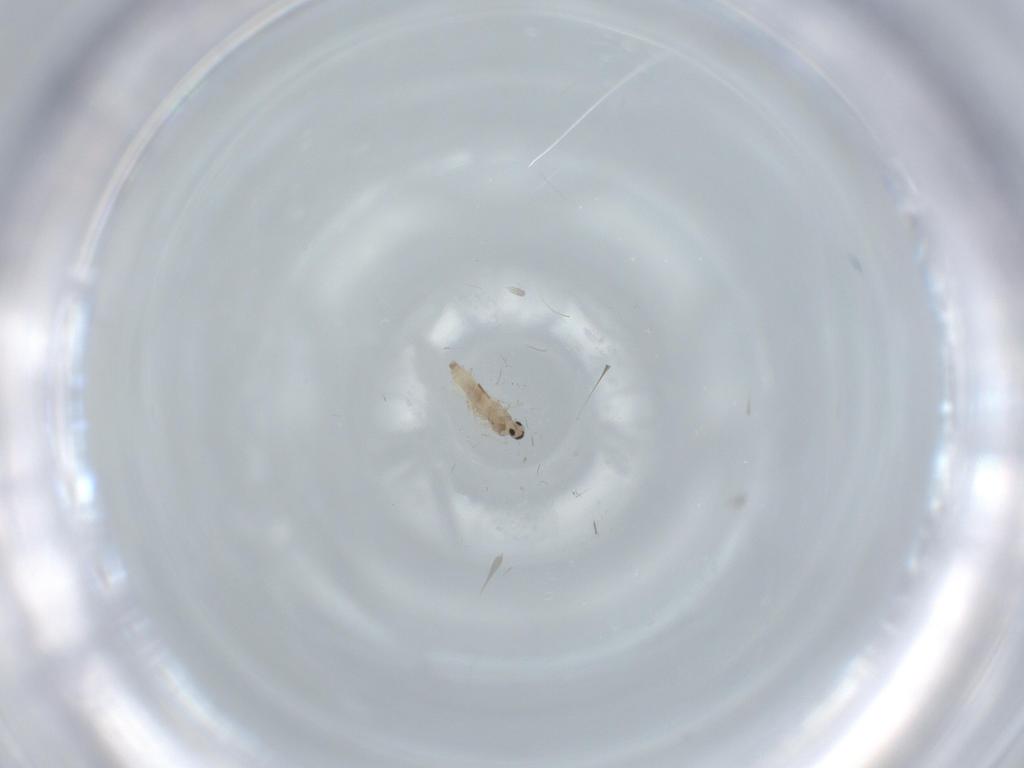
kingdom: Animalia
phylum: Arthropoda
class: Insecta
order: Diptera
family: Cecidomyiidae
